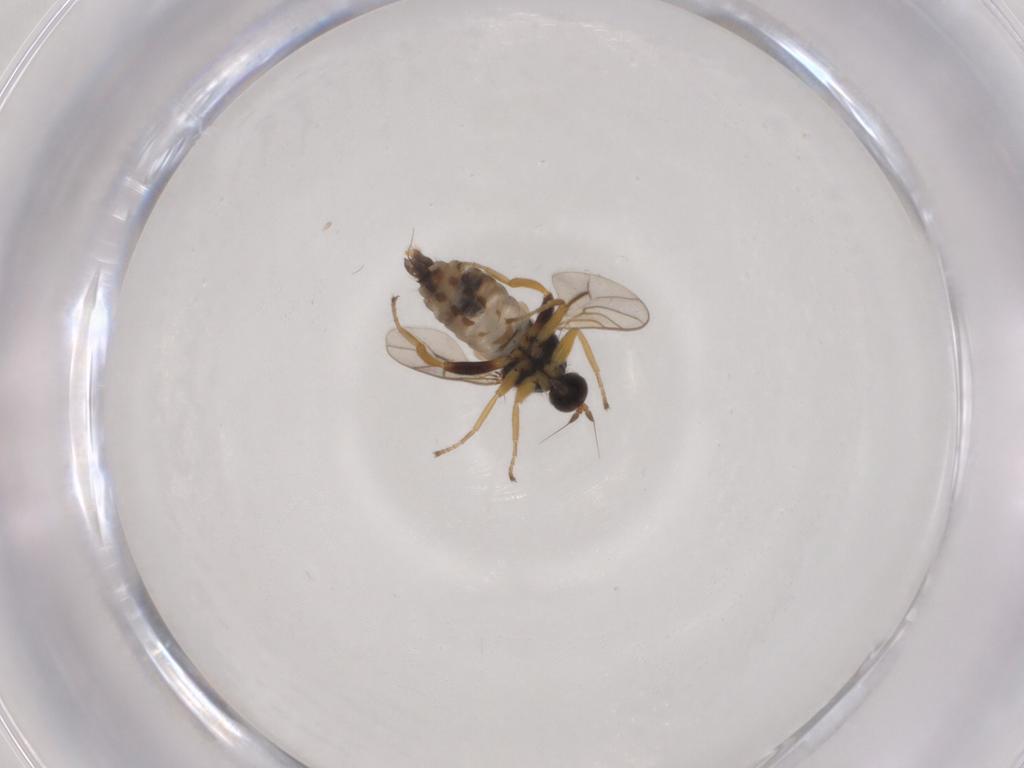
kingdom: Animalia
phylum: Arthropoda
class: Insecta
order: Diptera
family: Hybotidae
